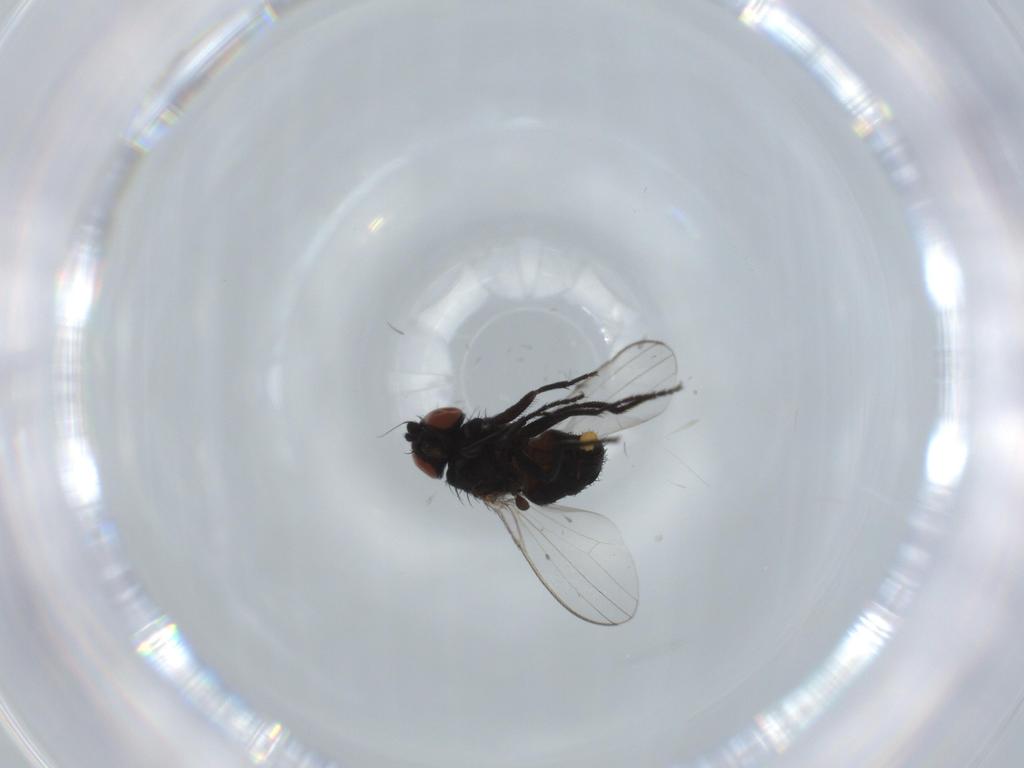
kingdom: Animalia
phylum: Arthropoda
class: Insecta
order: Diptera
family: Milichiidae
